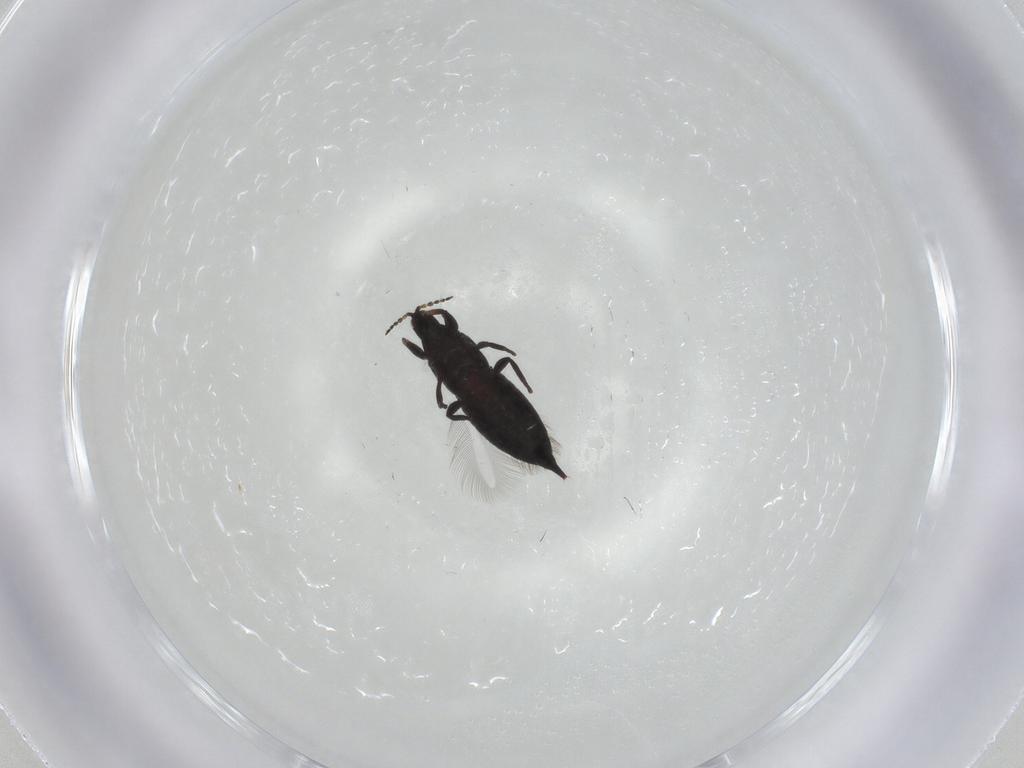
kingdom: Animalia
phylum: Arthropoda
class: Insecta
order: Thysanoptera
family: Phlaeothripidae
